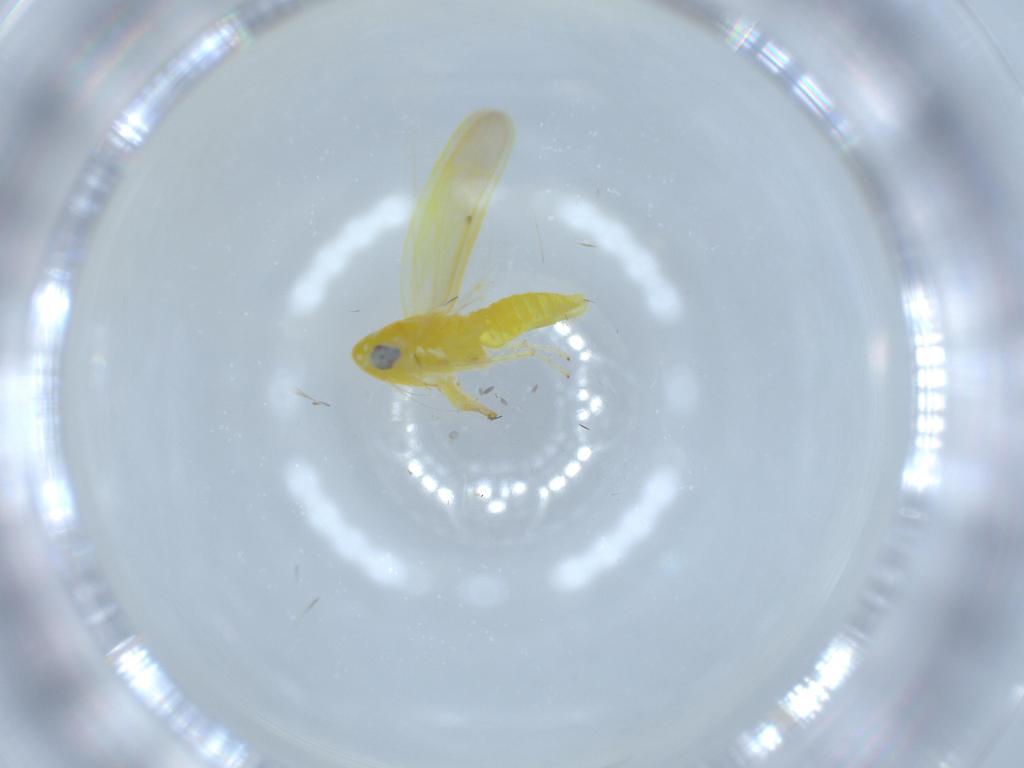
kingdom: Animalia
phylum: Arthropoda
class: Insecta
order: Hemiptera
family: Cicadellidae
